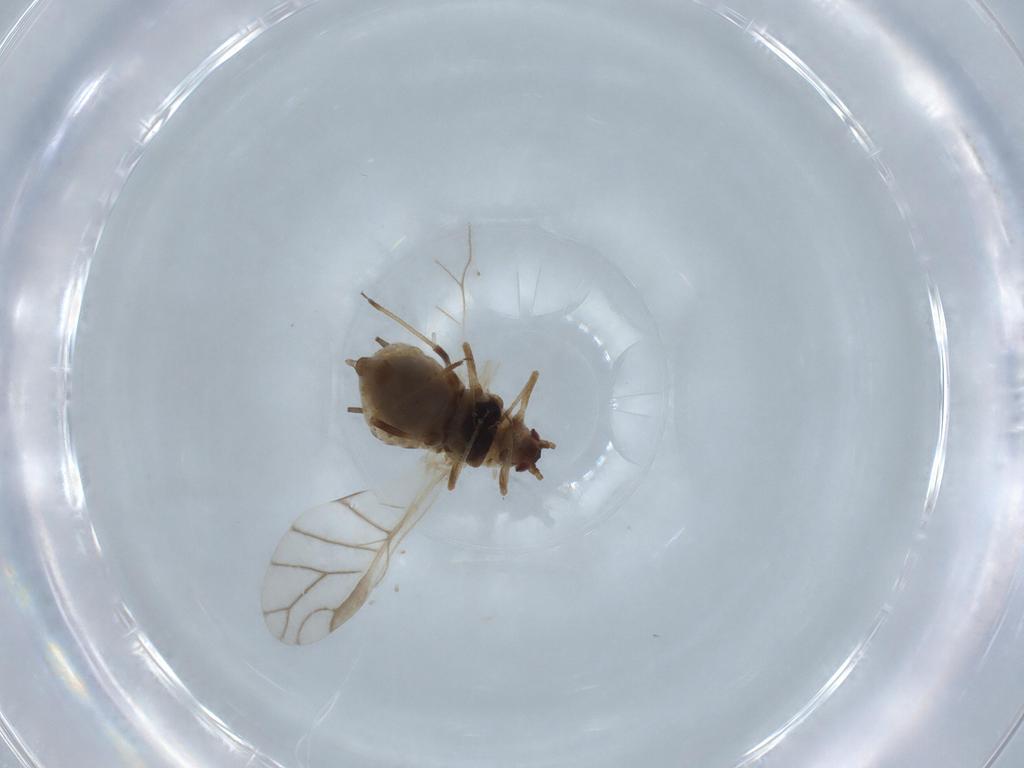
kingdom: Animalia
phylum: Arthropoda
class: Insecta
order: Hemiptera
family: Aphididae
